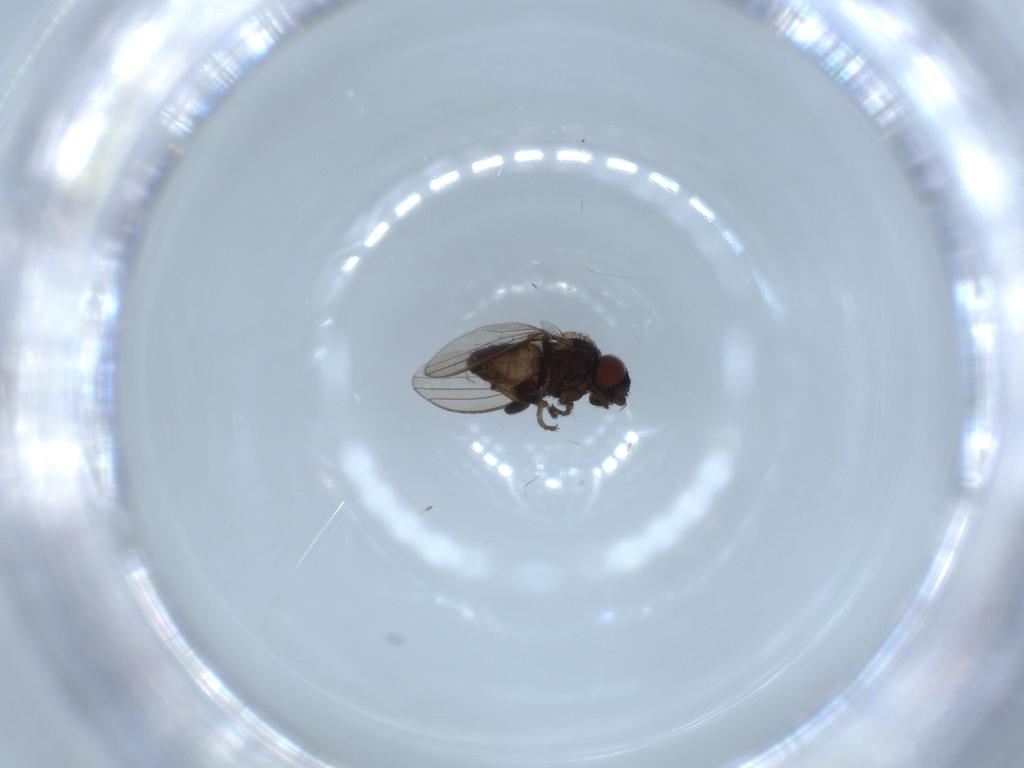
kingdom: Animalia
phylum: Arthropoda
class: Insecta
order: Diptera
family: Milichiidae
